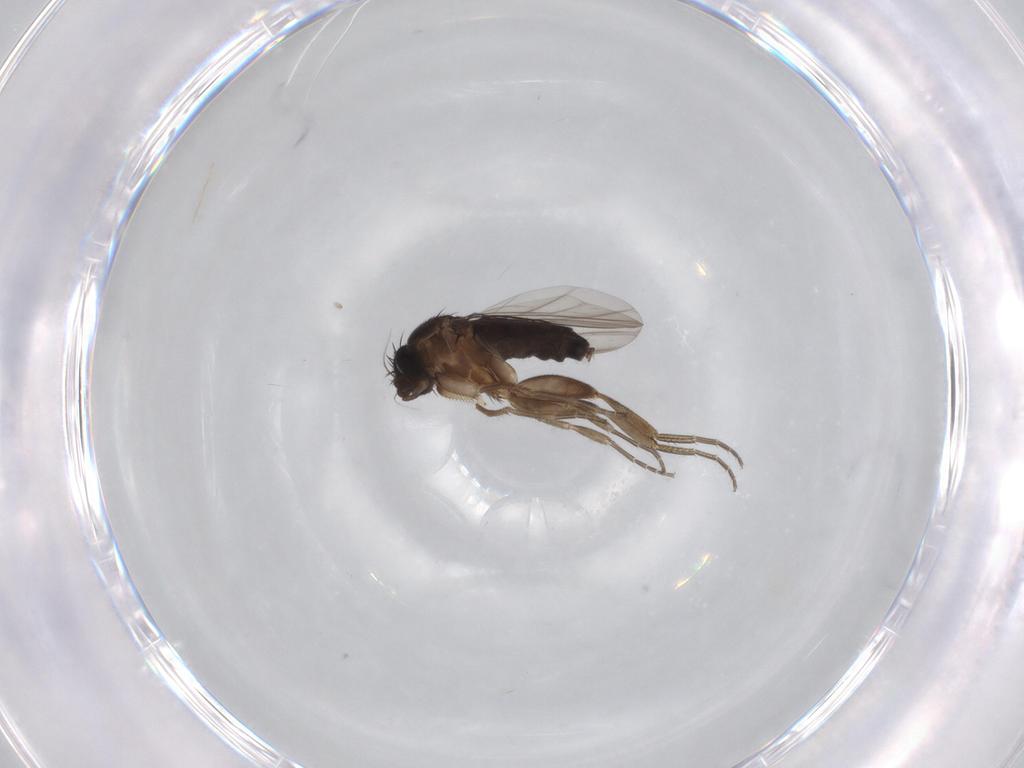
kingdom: Animalia
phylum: Arthropoda
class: Insecta
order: Diptera
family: Phoridae
